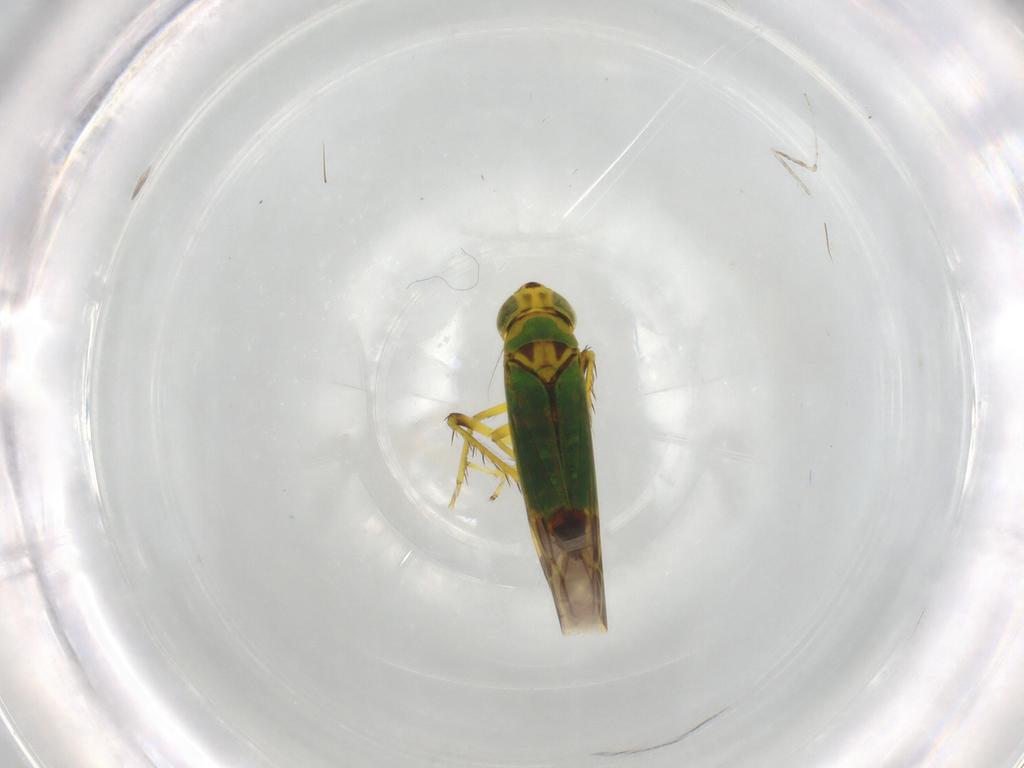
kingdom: Animalia
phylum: Arthropoda
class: Insecta
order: Hemiptera
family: Cicadellidae
